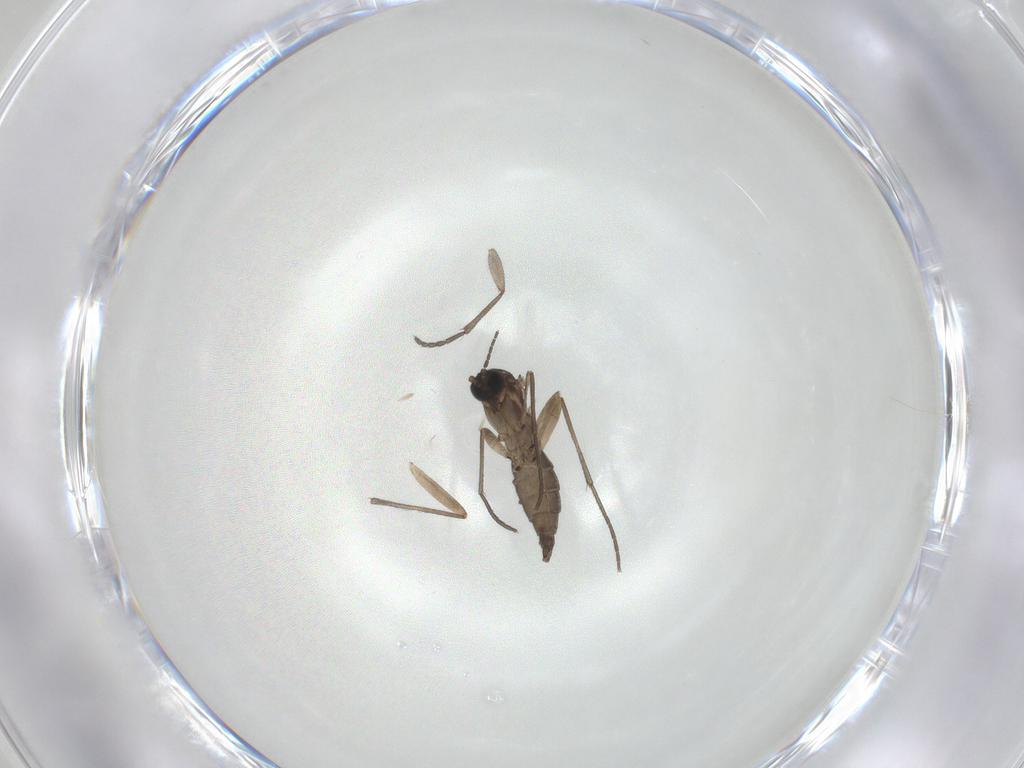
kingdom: Animalia
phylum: Arthropoda
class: Insecta
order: Diptera
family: Sciaridae
